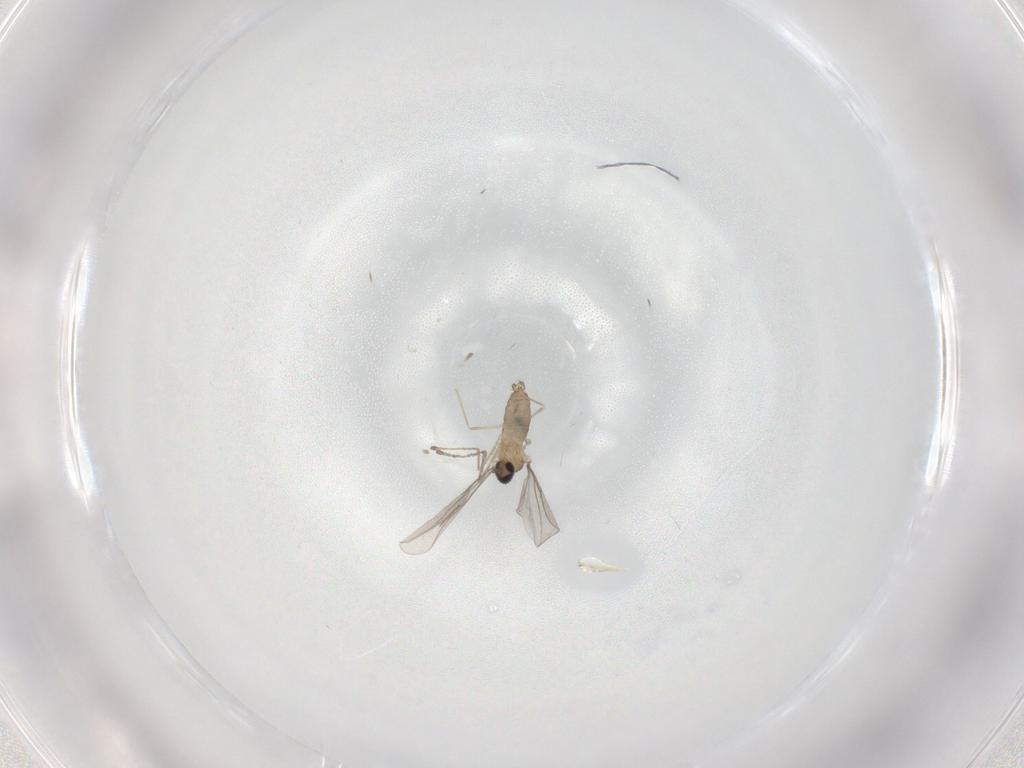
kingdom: Animalia
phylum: Arthropoda
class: Insecta
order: Diptera
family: Cecidomyiidae
